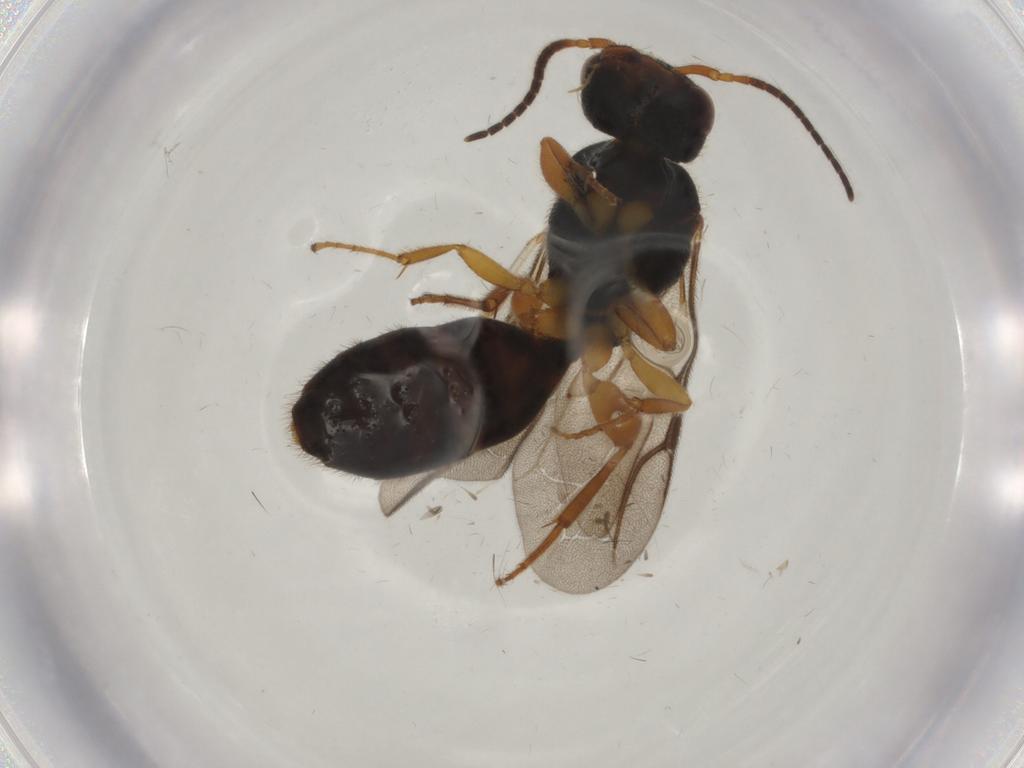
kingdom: Animalia
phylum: Arthropoda
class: Insecta
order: Hymenoptera
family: Bethylidae
